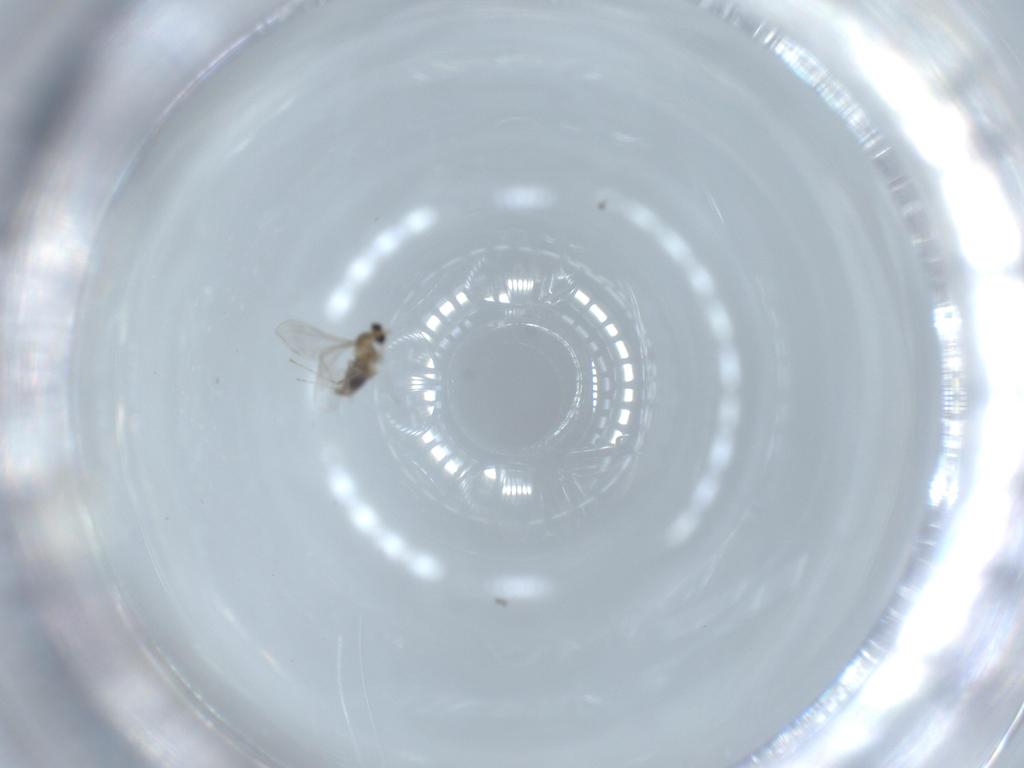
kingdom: Animalia
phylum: Arthropoda
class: Insecta
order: Diptera
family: Cecidomyiidae
